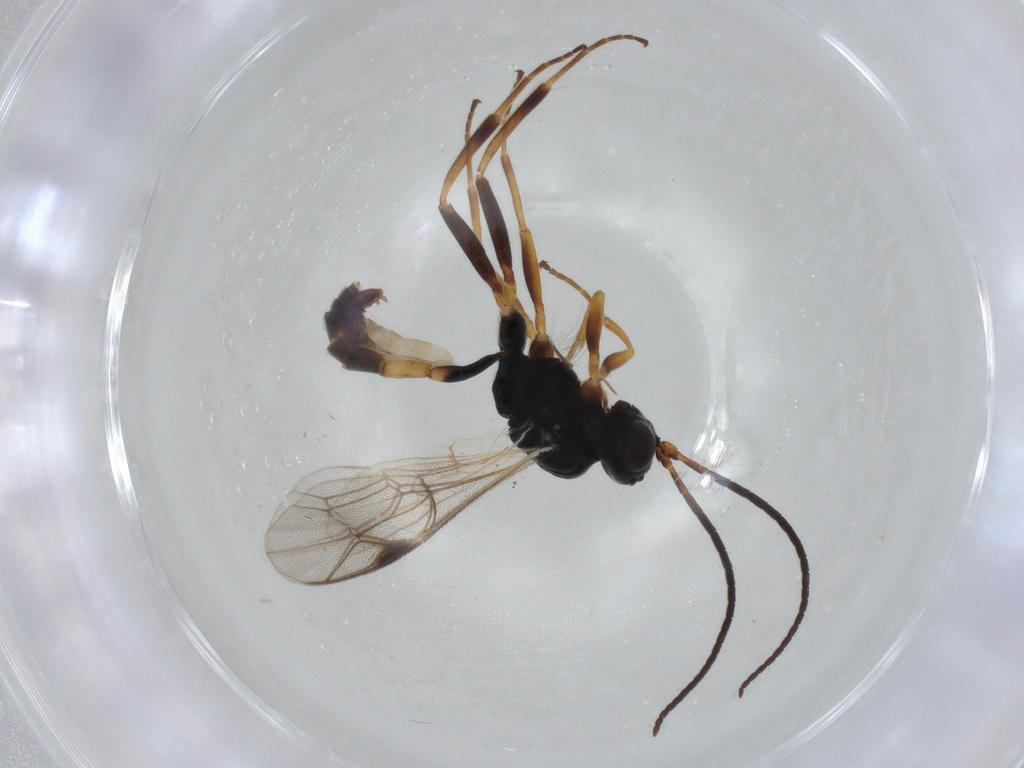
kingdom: Animalia
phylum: Arthropoda
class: Insecta
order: Hymenoptera
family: Ichneumonidae
